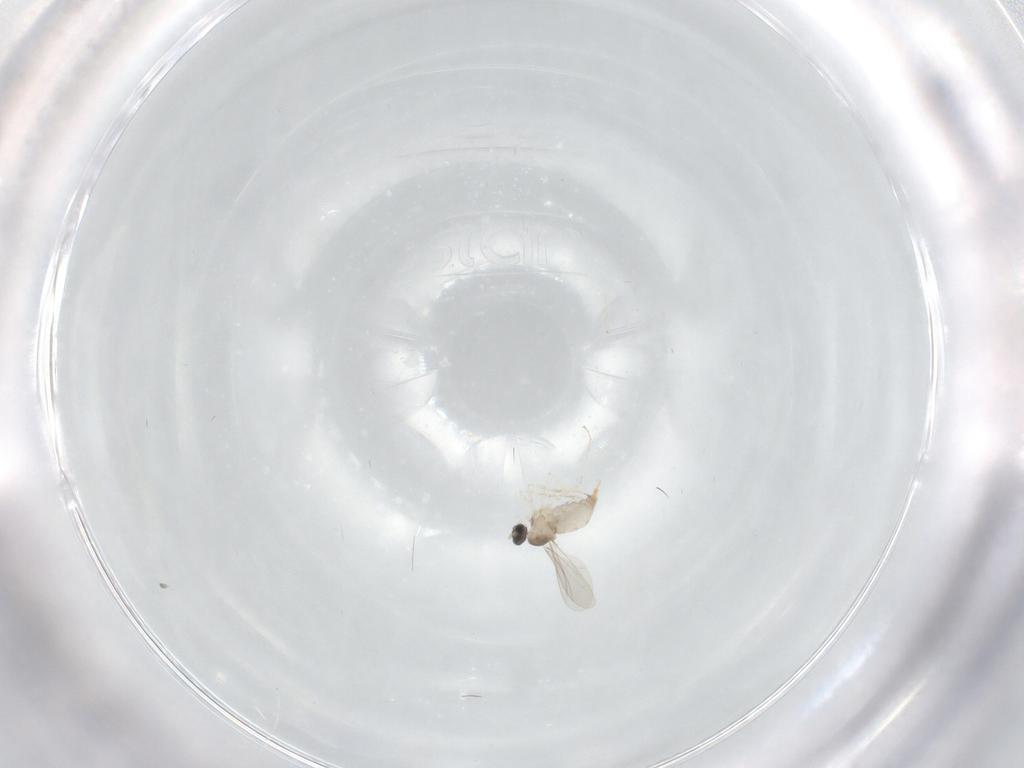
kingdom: Animalia
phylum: Arthropoda
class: Insecta
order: Diptera
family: Cecidomyiidae
